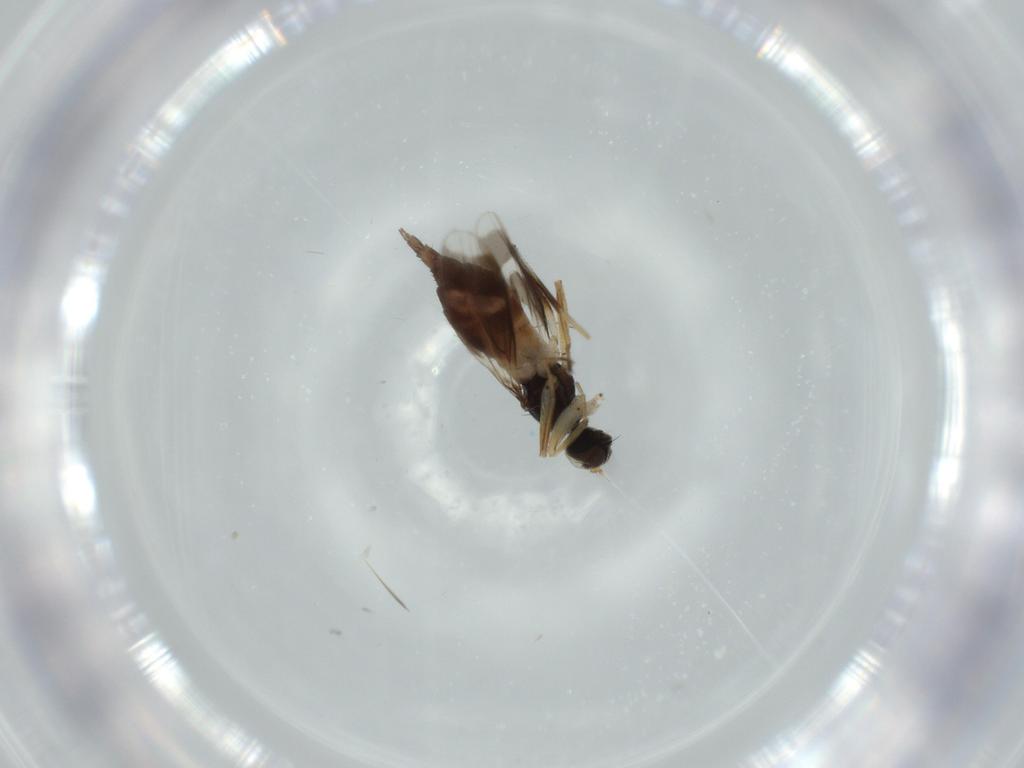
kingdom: Animalia
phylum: Arthropoda
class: Insecta
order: Diptera
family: Hybotidae
